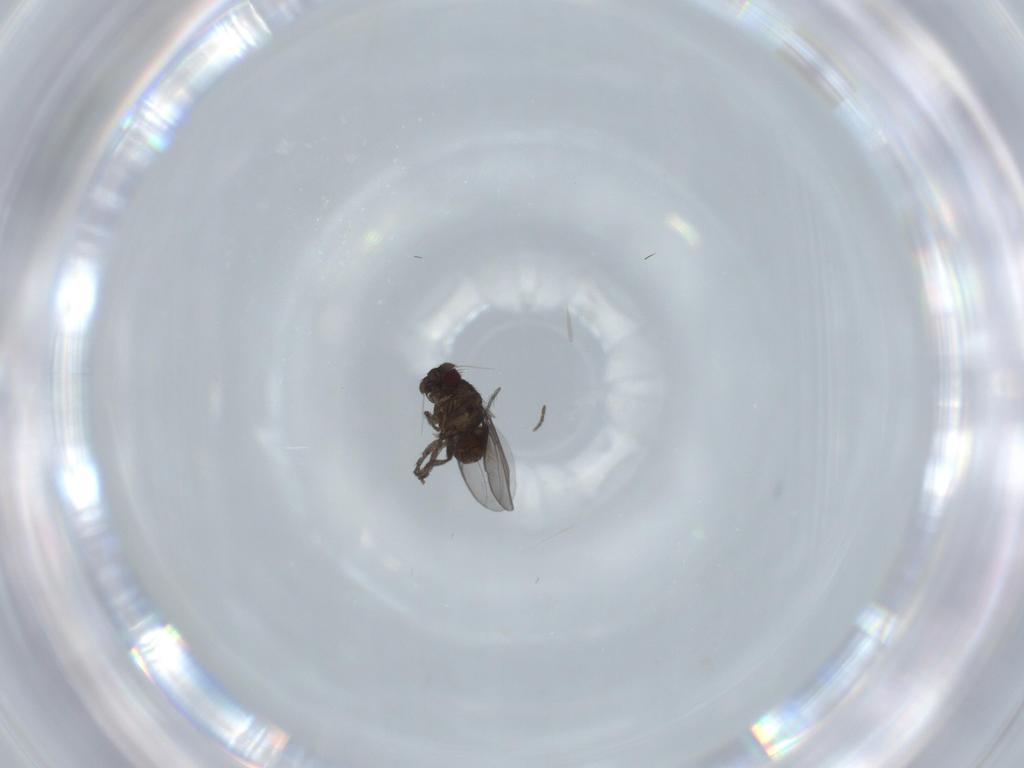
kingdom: Animalia
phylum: Arthropoda
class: Insecta
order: Diptera
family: Sphaeroceridae
